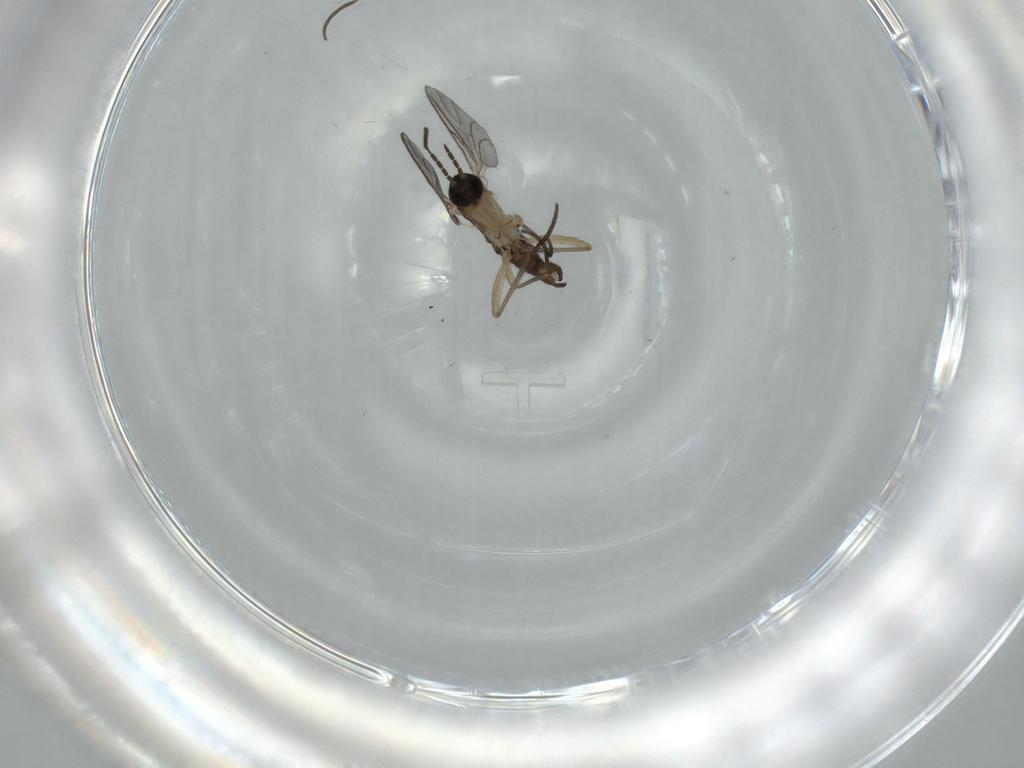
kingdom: Animalia
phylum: Arthropoda
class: Insecta
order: Diptera
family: Sciaridae
